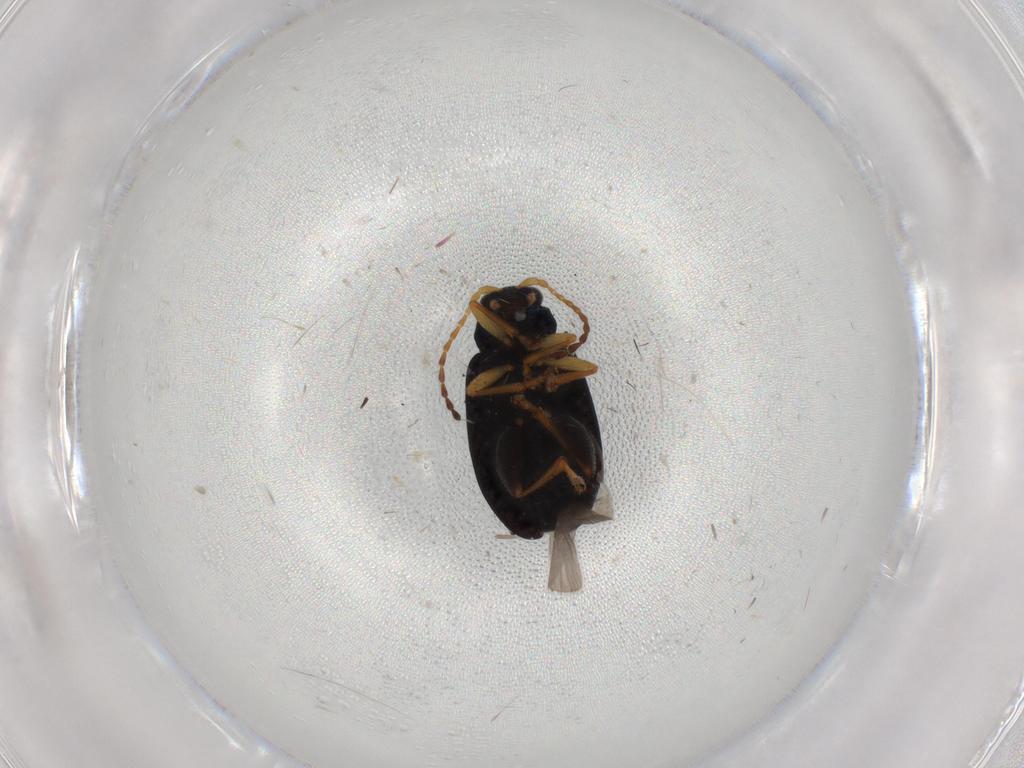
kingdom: Animalia
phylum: Arthropoda
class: Insecta
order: Coleoptera
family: Chrysomelidae
